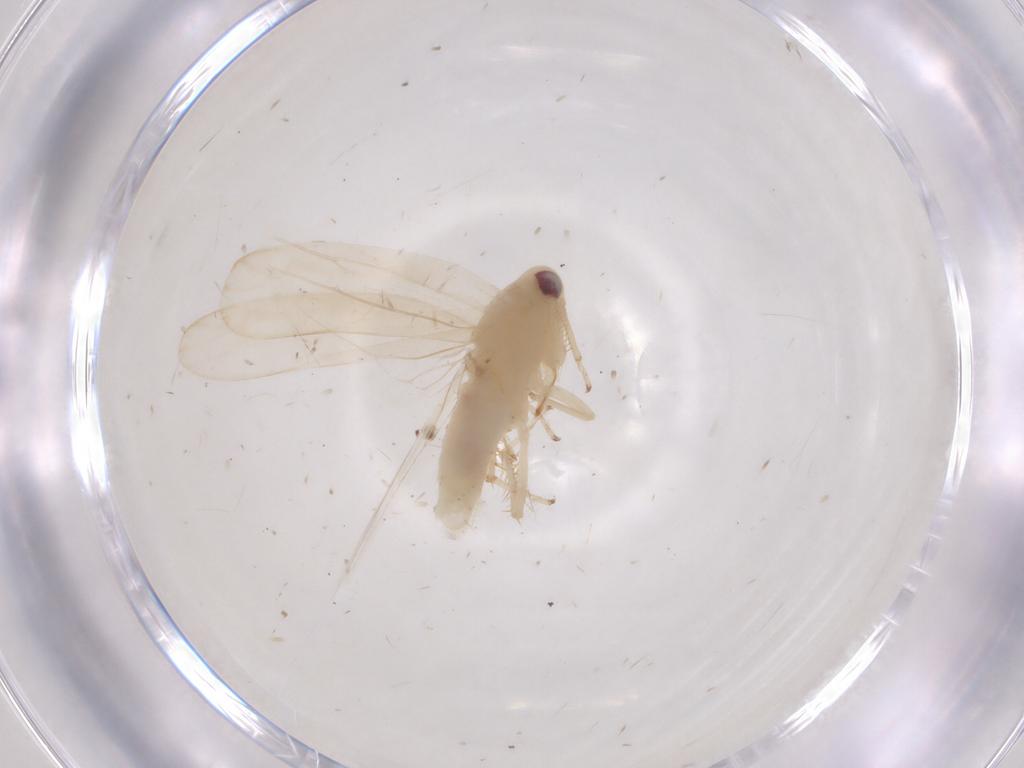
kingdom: Animalia
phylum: Arthropoda
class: Insecta
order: Hemiptera
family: Cicadellidae
